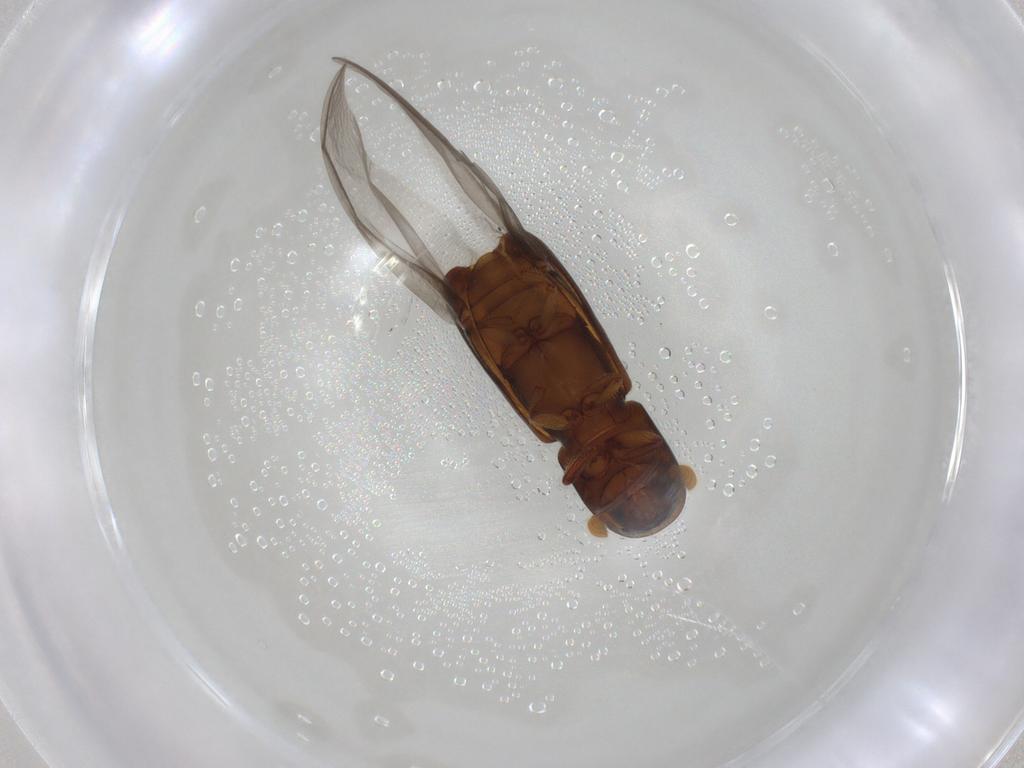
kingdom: Animalia
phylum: Arthropoda
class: Insecta
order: Coleoptera
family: Curculionidae
